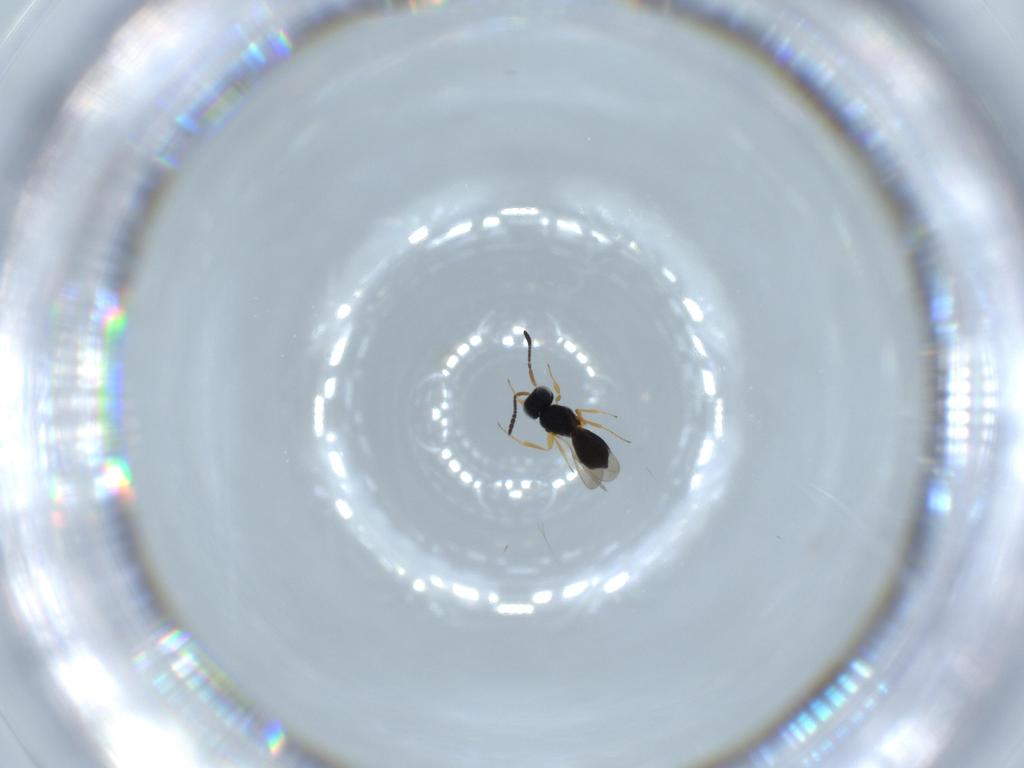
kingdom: Animalia
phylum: Arthropoda
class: Insecta
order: Hymenoptera
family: Scelionidae
